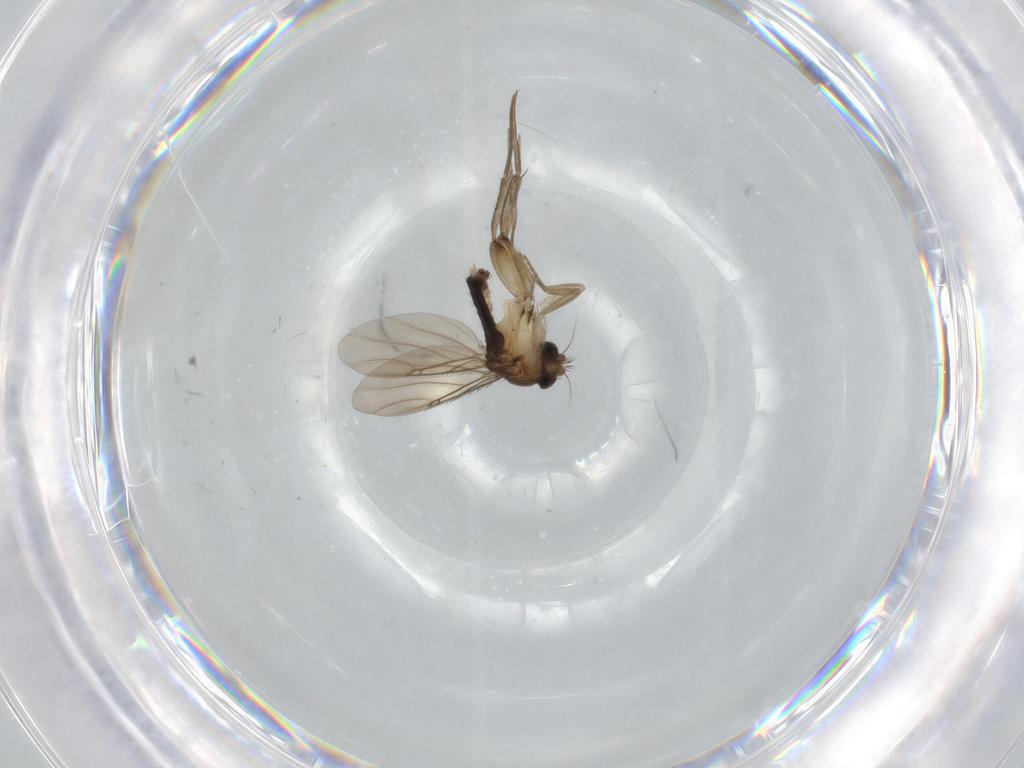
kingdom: Animalia
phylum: Arthropoda
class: Insecta
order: Diptera
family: Phoridae
